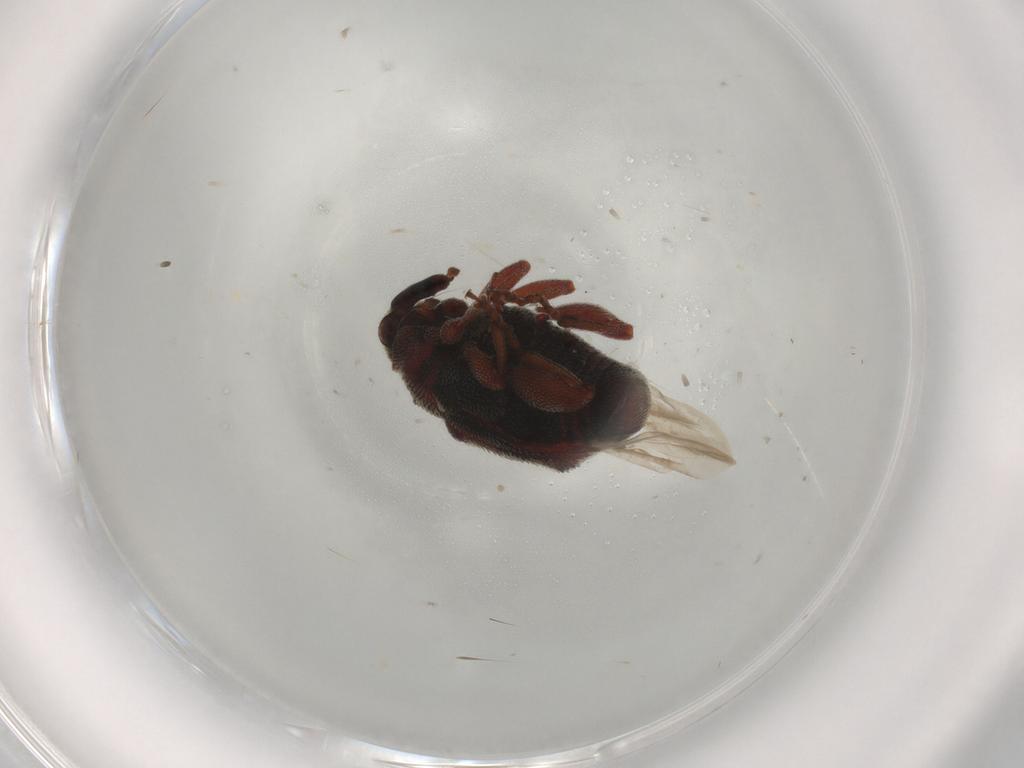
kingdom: Animalia
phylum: Arthropoda
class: Insecta
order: Coleoptera
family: Curculionidae
